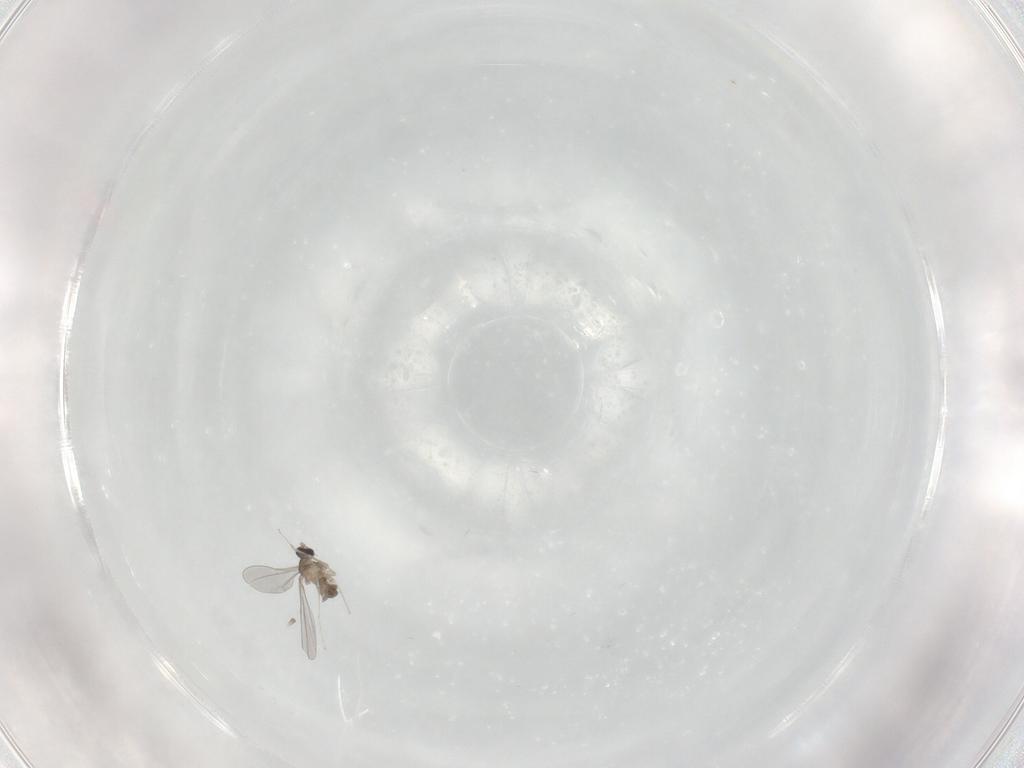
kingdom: Animalia
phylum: Arthropoda
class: Insecta
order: Diptera
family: Cecidomyiidae
